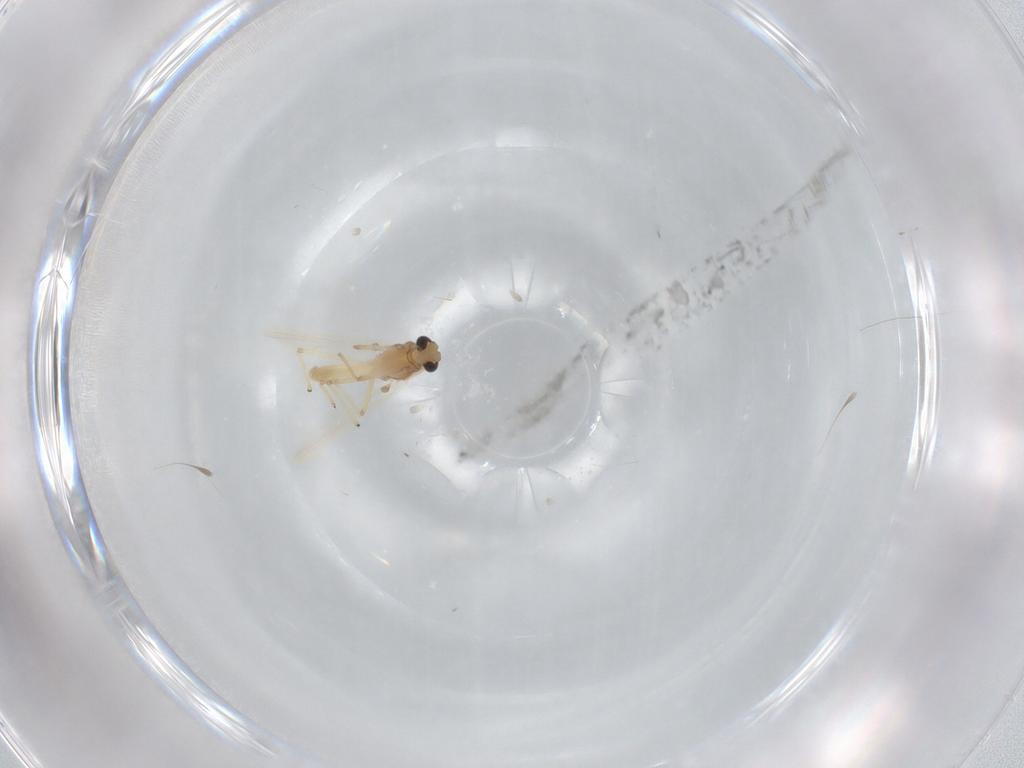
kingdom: Animalia
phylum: Arthropoda
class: Insecta
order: Diptera
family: Chironomidae
